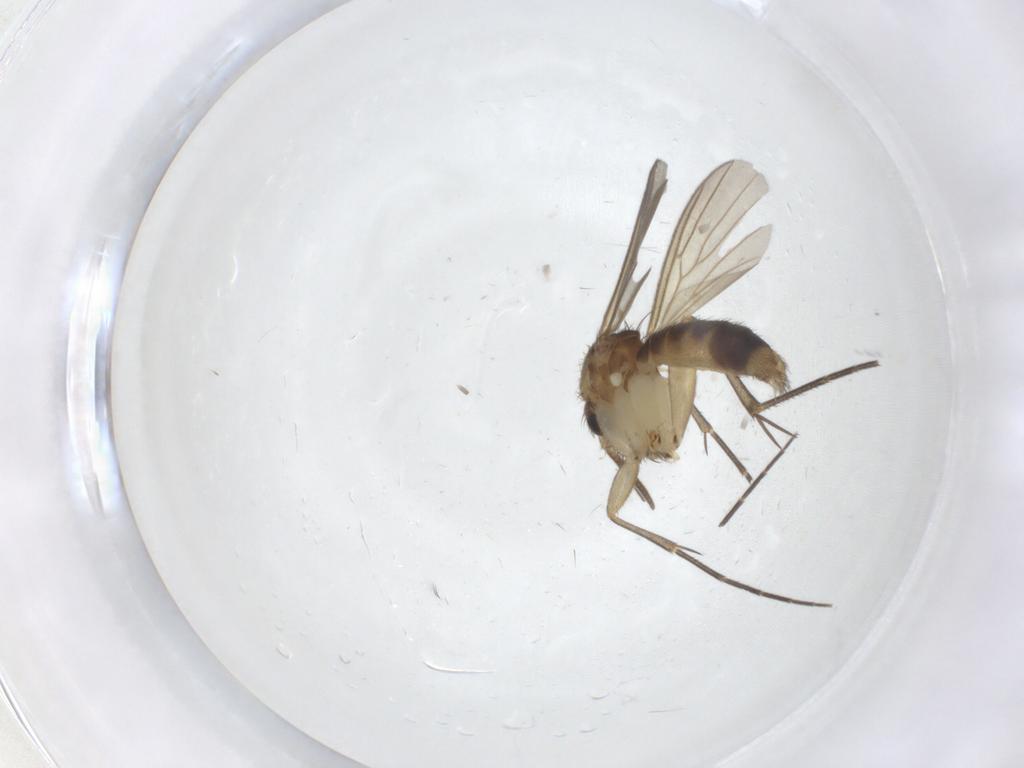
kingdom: Animalia
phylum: Arthropoda
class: Insecta
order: Diptera
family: Mycetophilidae
